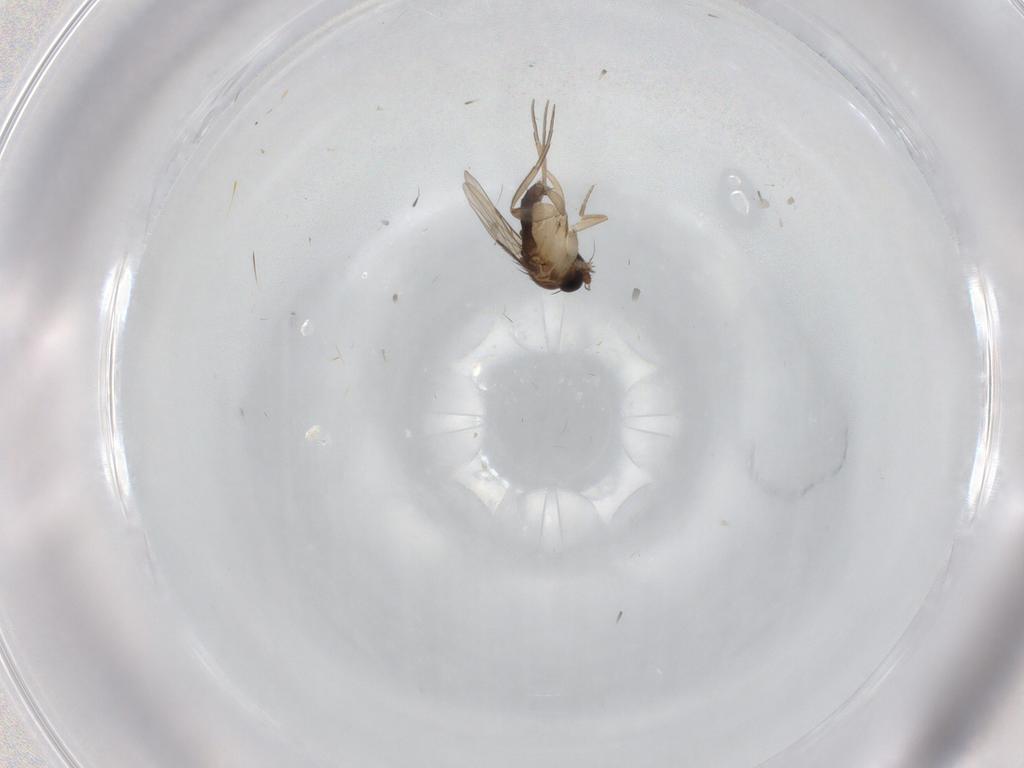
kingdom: Animalia
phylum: Arthropoda
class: Insecta
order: Diptera
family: Phoridae
